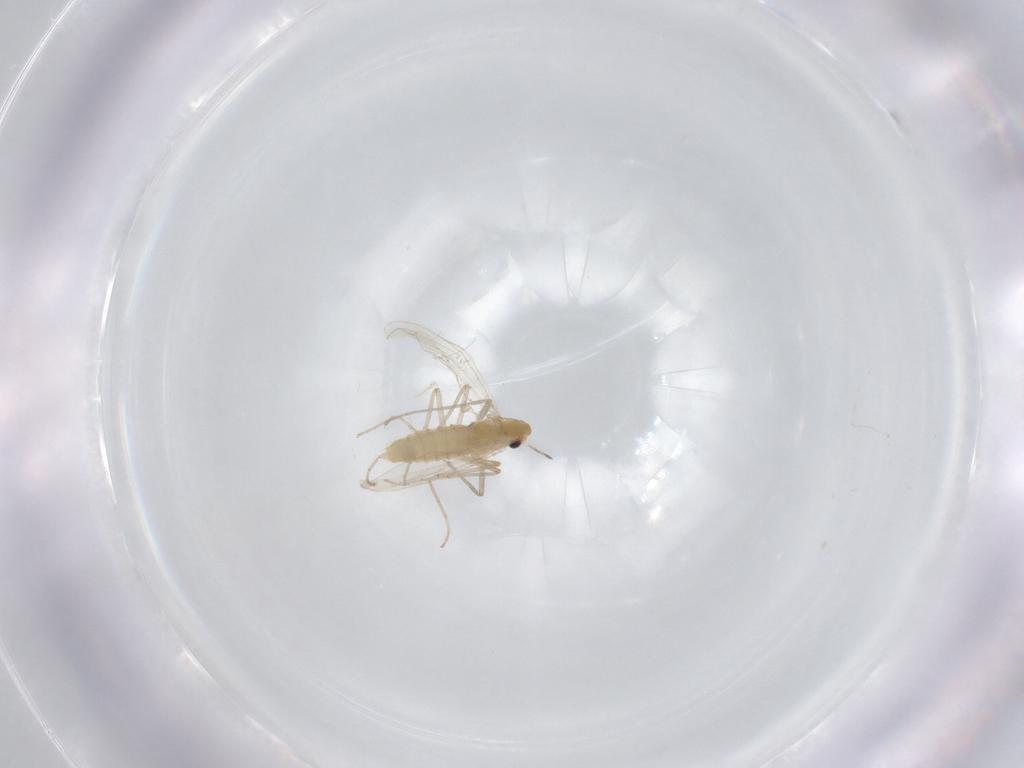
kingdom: Animalia
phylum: Arthropoda
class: Insecta
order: Diptera
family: Chironomidae
